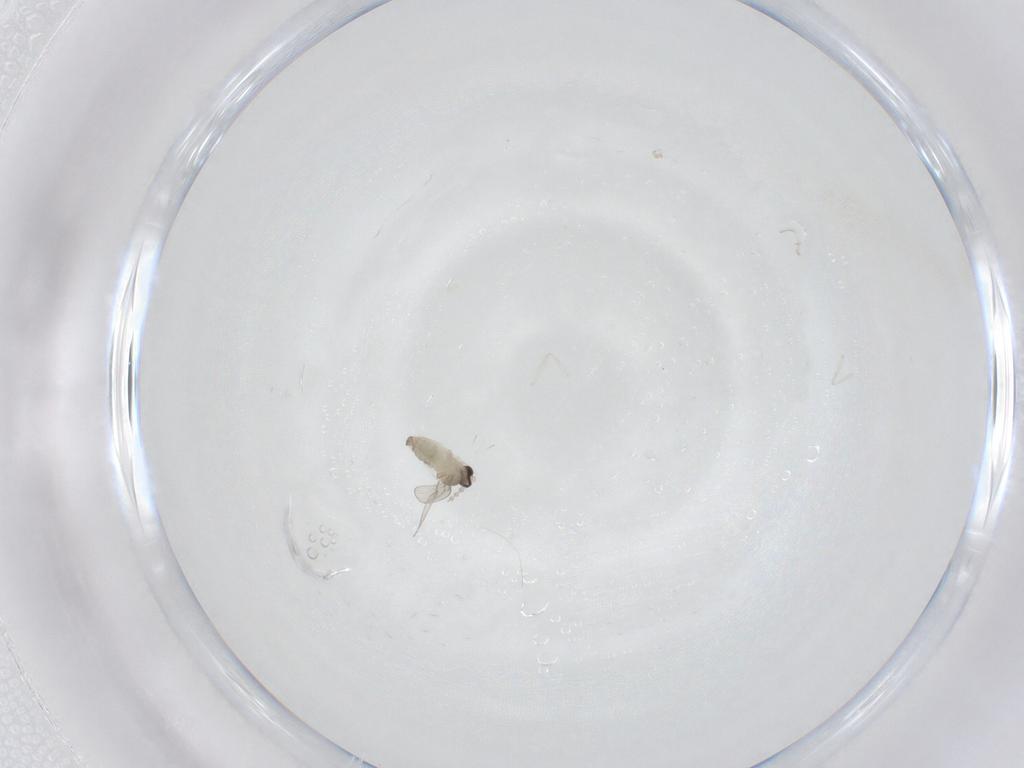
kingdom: Animalia
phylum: Arthropoda
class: Insecta
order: Diptera
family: Cecidomyiidae
